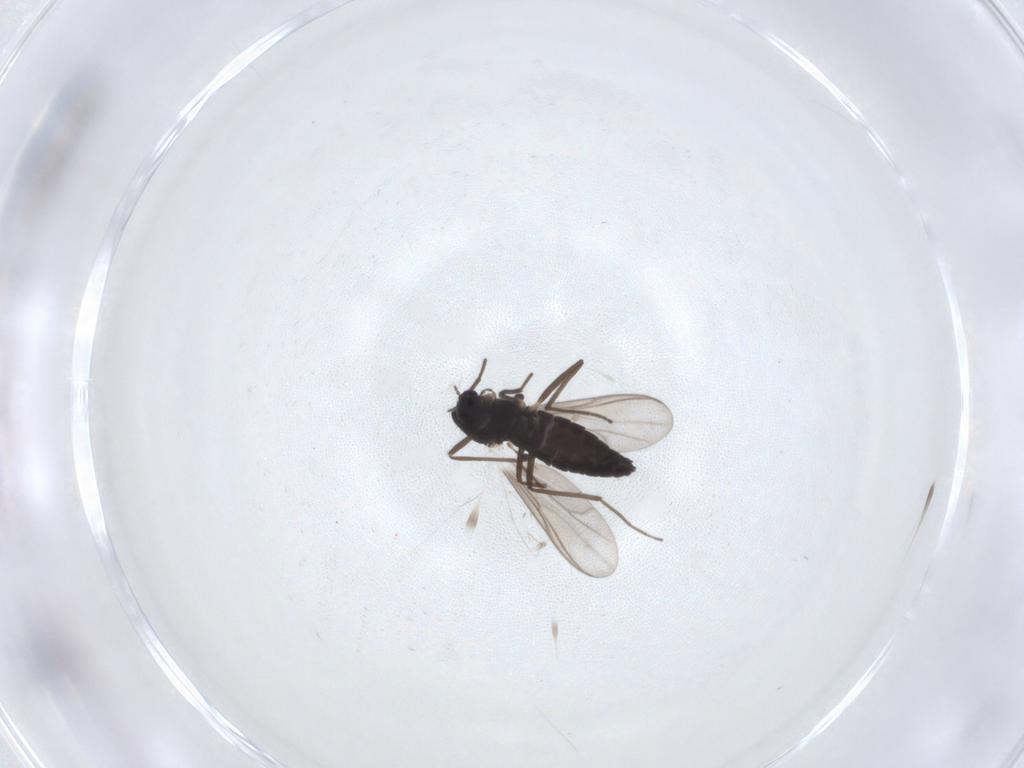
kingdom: Animalia
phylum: Arthropoda
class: Insecta
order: Diptera
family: Chironomidae
